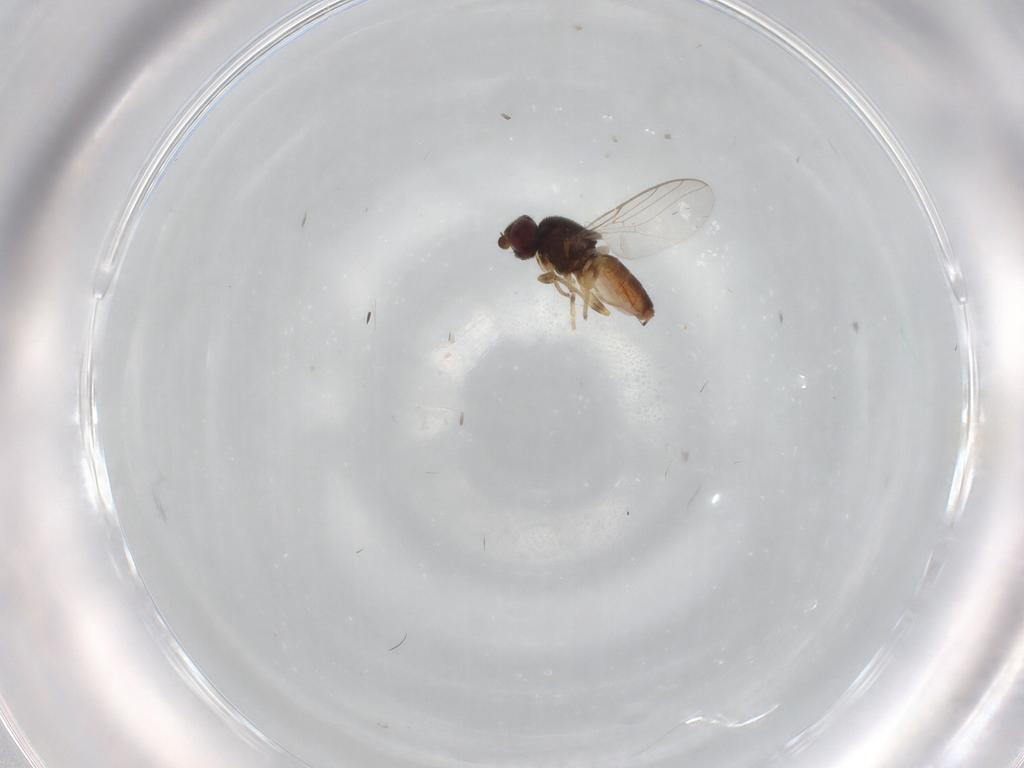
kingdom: Animalia
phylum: Arthropoda
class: Insecta
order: Diptera
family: Chloropidae
